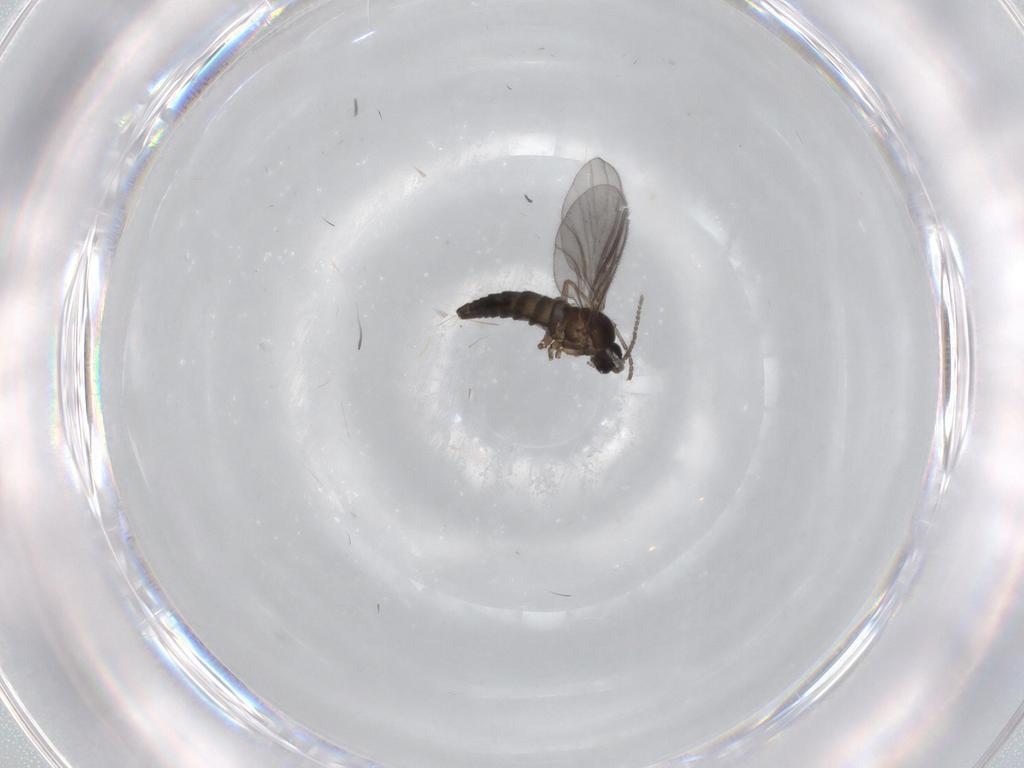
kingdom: Animalia
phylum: Arthropoda
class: Insecta
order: Diptera
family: Sciaridae
